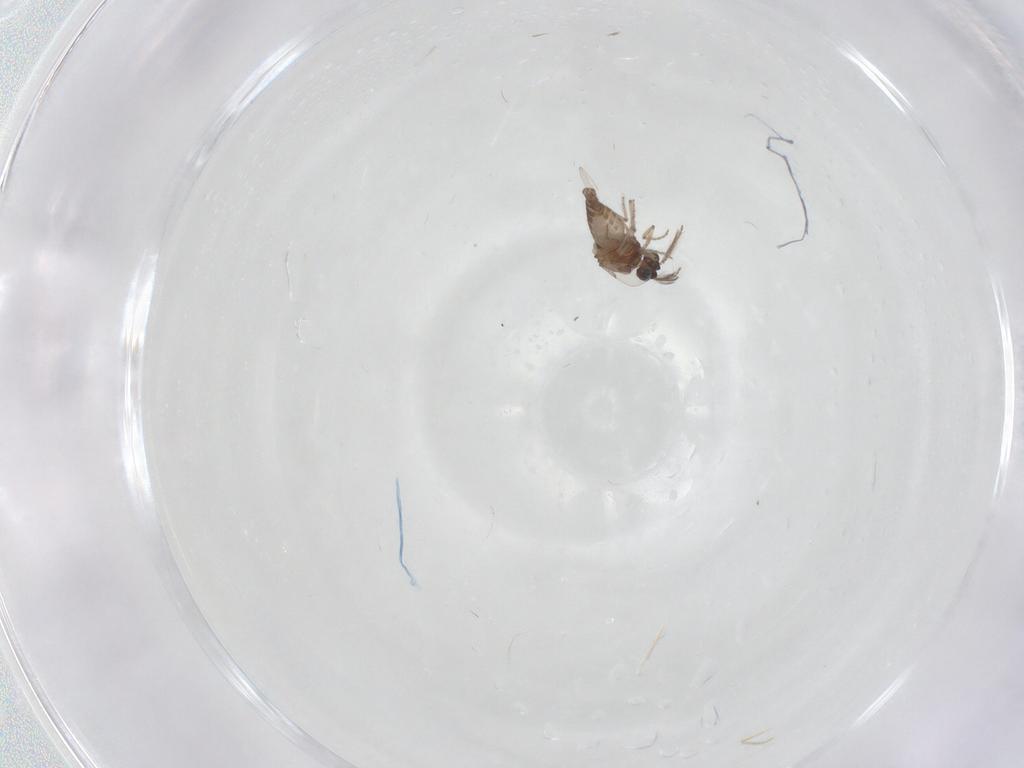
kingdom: Animalia
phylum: Arthropoda
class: Insecta
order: Diptera
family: Ceratopogonidae
